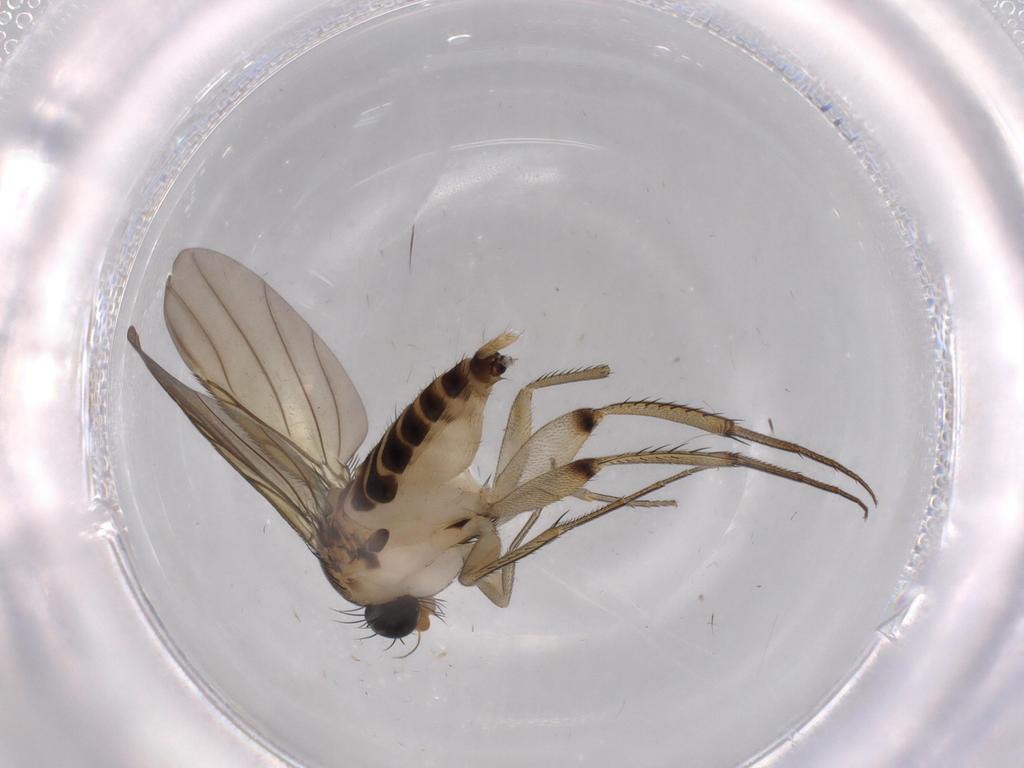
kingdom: Animalia
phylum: Arthropoda
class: Insecta
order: Diptera
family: Phoridae
